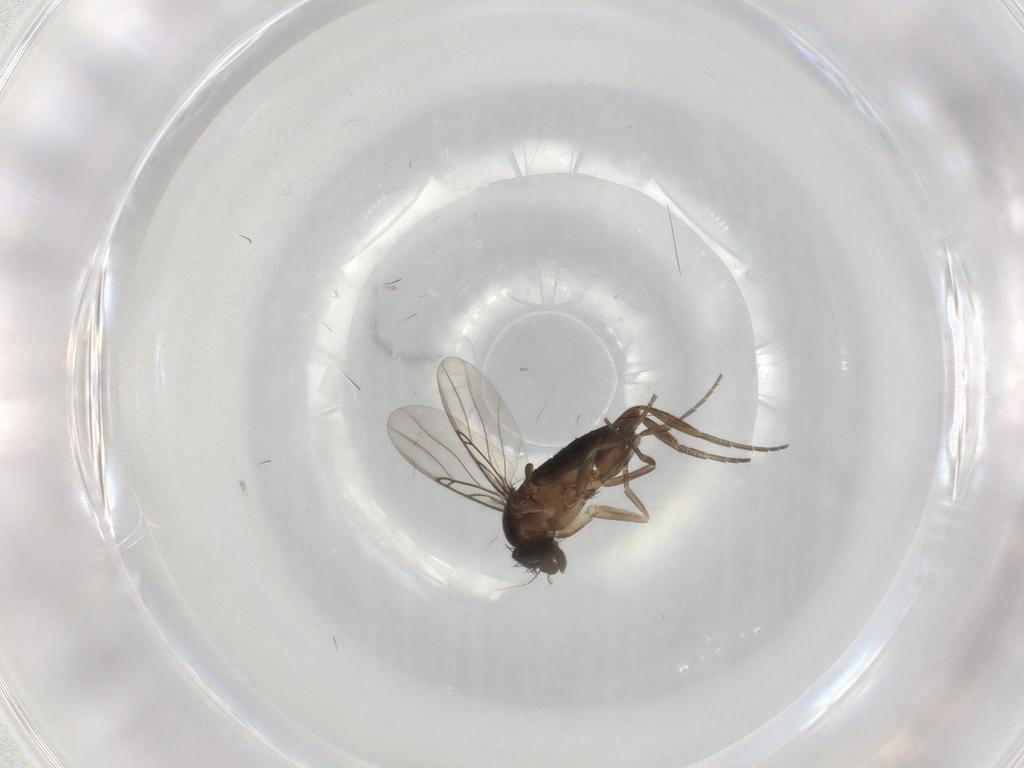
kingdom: Animalia
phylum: Arthropoda
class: Insecta
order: Diptera
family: Phoridae
